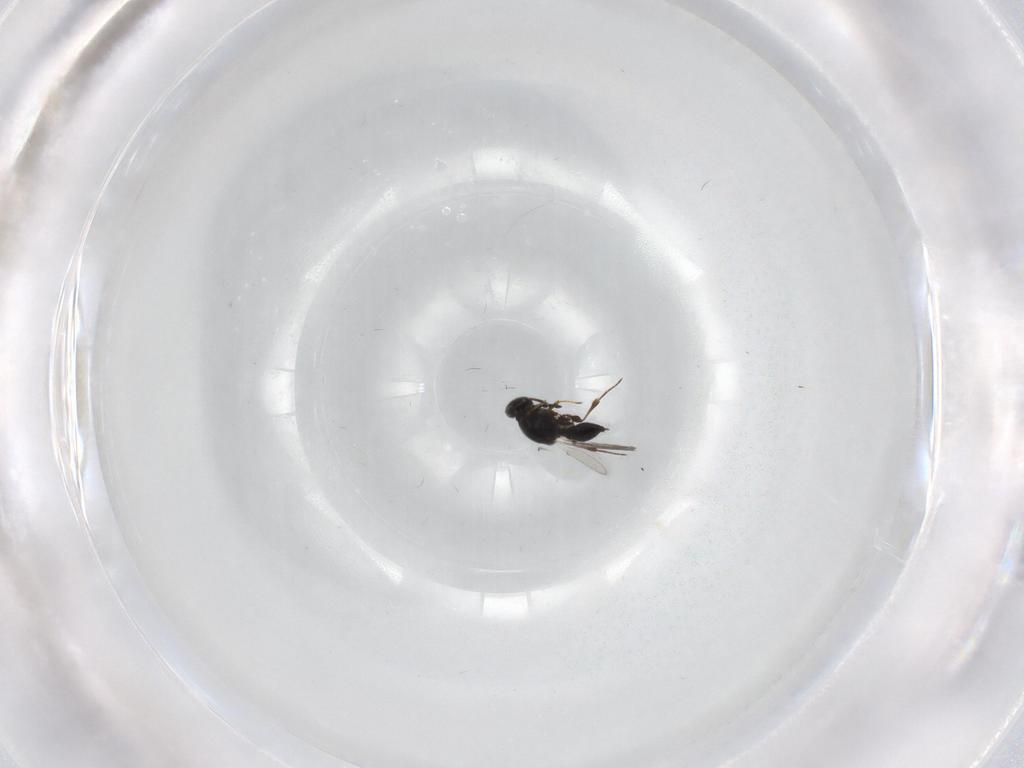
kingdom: Animalia
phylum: Arthropoda
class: Insecta
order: Hymenoptera
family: Platygastridae
